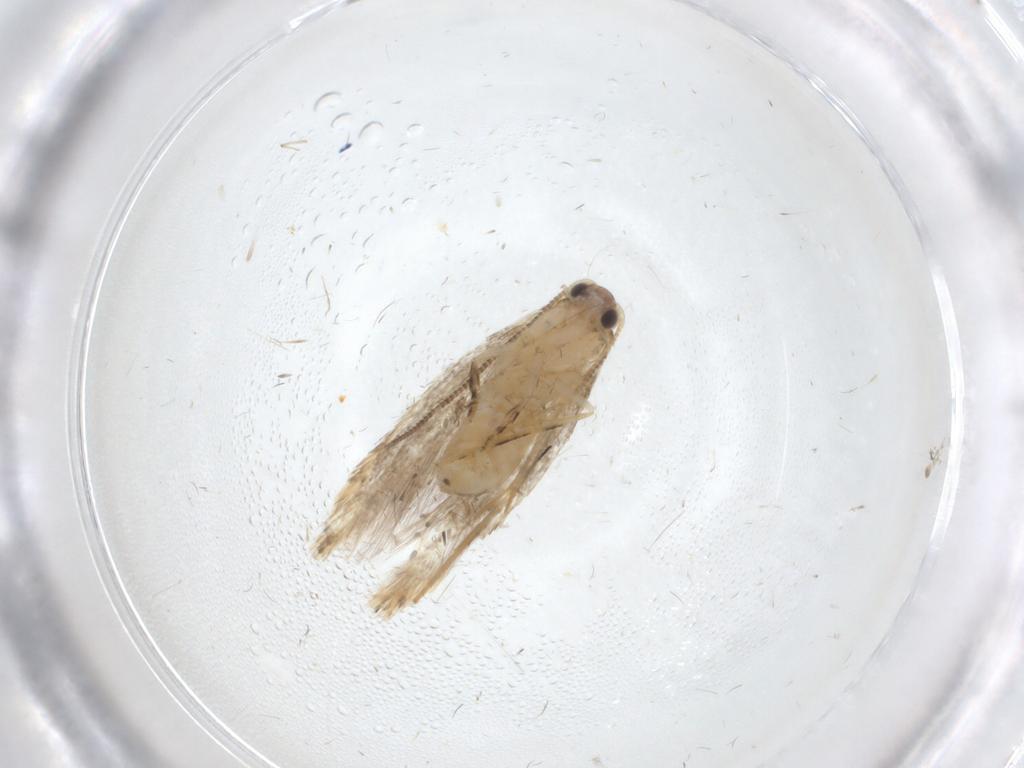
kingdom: Animalia
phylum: Arthropoda
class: Insecta
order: Lepidoptera
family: Tineidae
